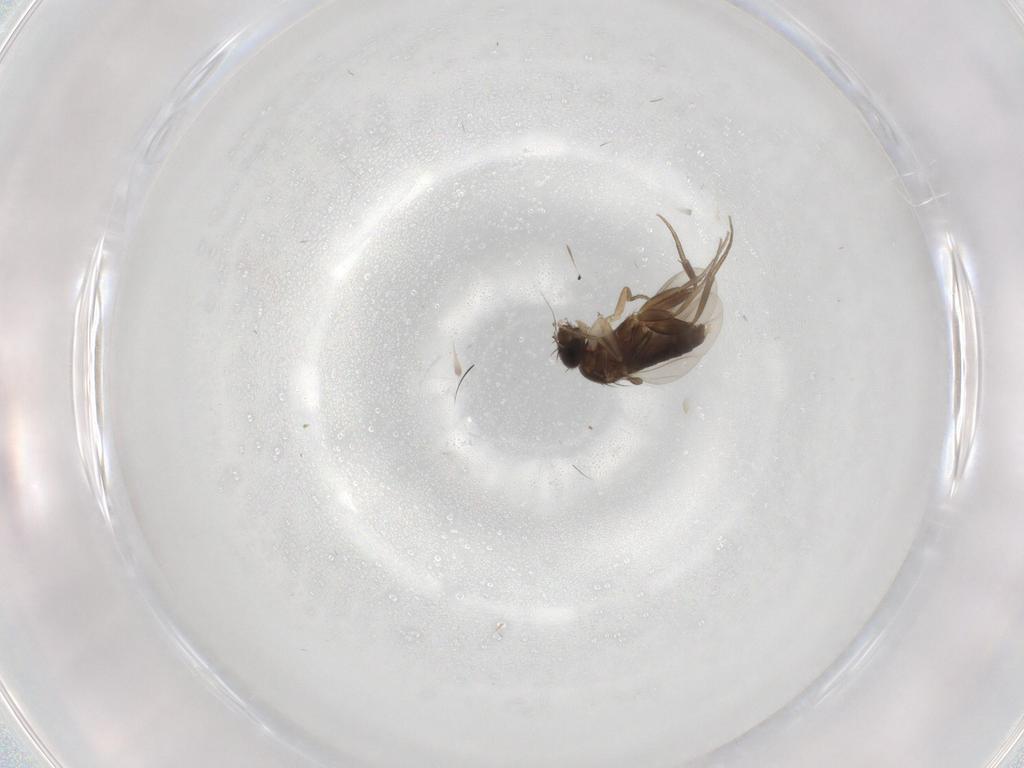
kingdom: Animalia
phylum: Arthropoda
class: Insecta
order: Diptera
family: Phoridae
